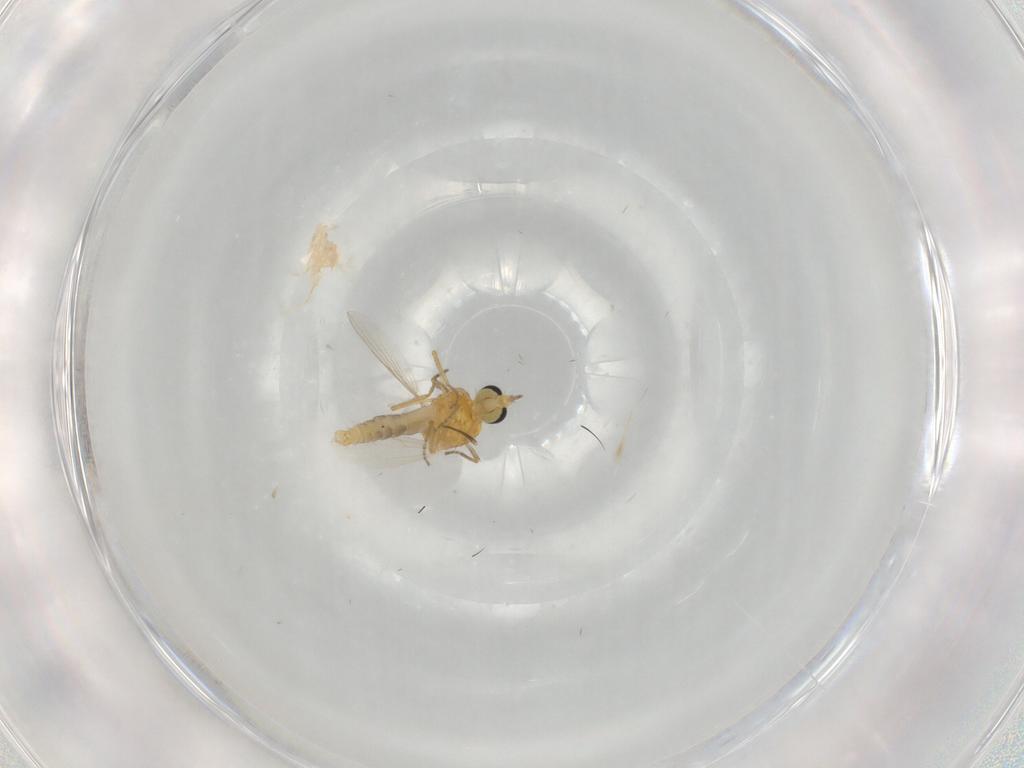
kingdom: Animalia
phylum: Arthropoda
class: Insecta
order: Diptera
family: Ceratopogonidae
